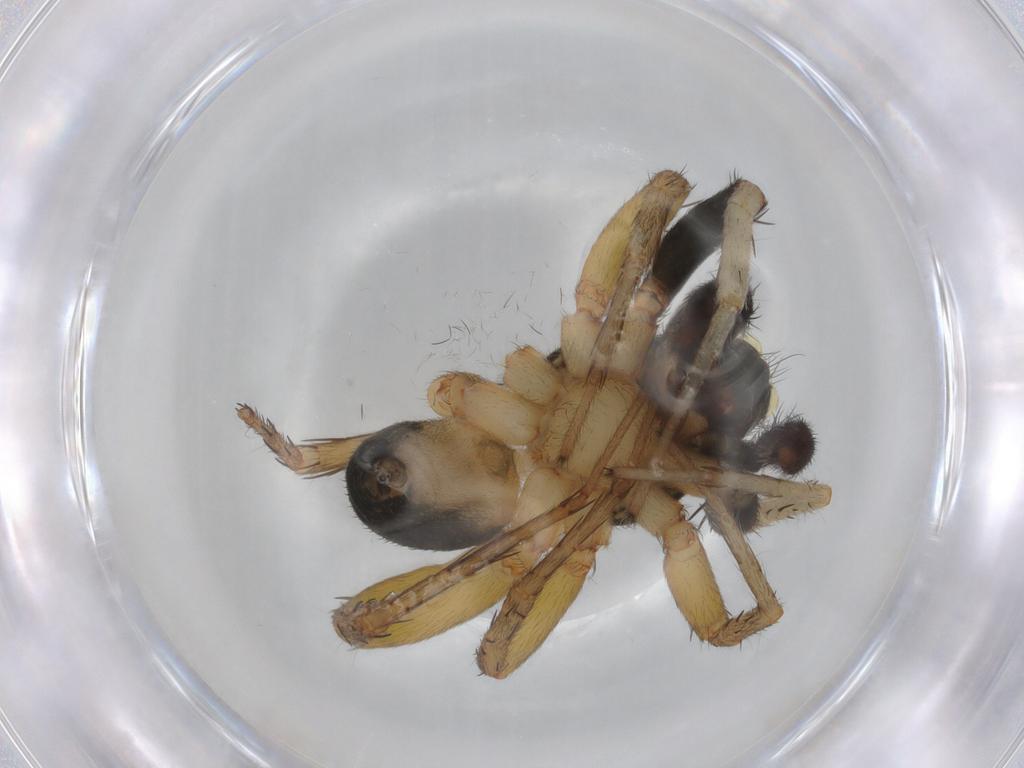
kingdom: Animalia
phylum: Arthropoda
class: Arachnida
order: Araneae
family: Lycosidae
